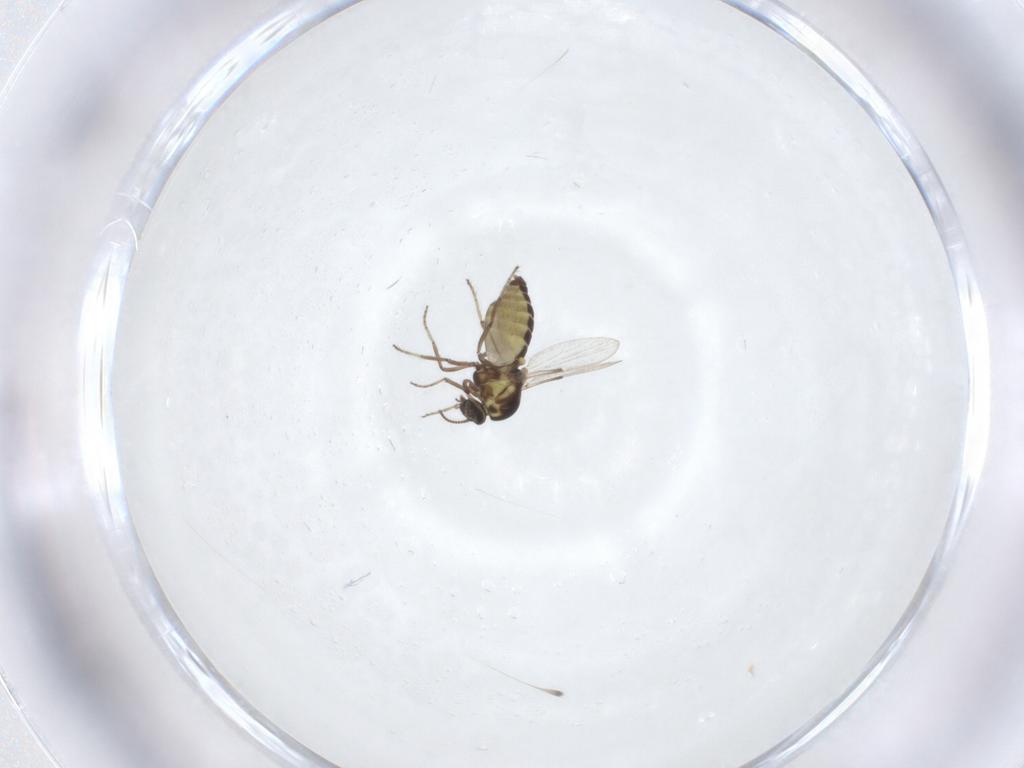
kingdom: Animalia
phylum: Arthropoda
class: Insecta
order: Diptera
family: Ceratopogonidae
